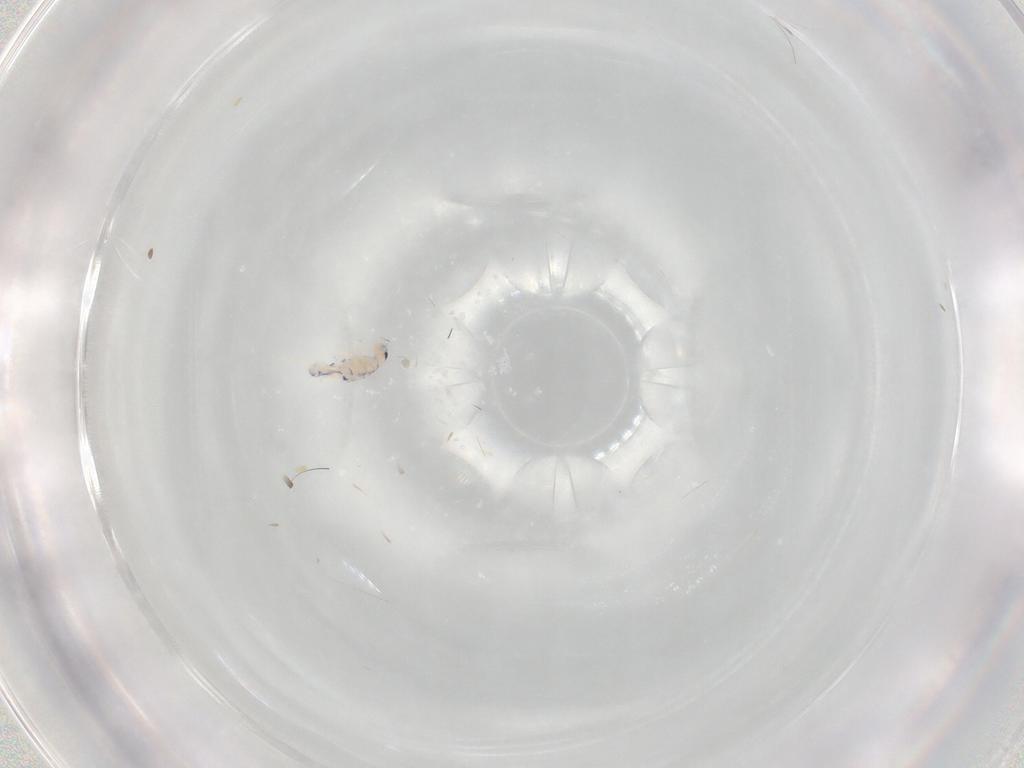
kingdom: Animalia
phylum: Arthropoda
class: Collembola
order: Entomobryomorpha
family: Entomobryidae
